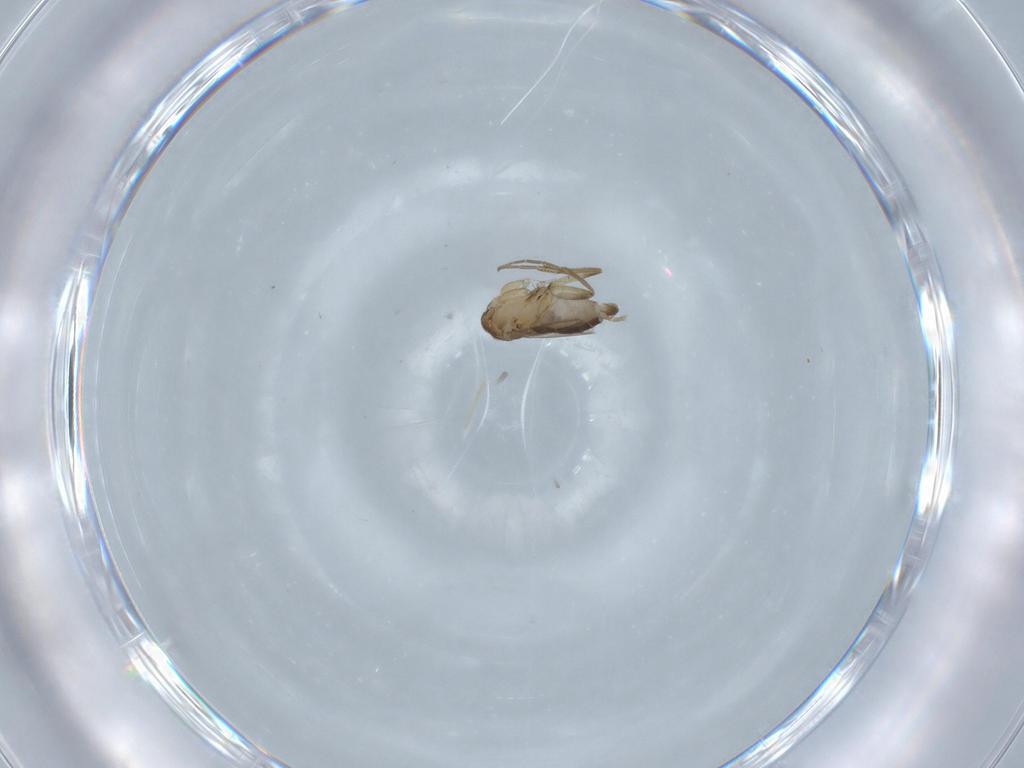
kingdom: Animalia
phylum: Arthropoda
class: Insecta
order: Diptera
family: Phoridae
